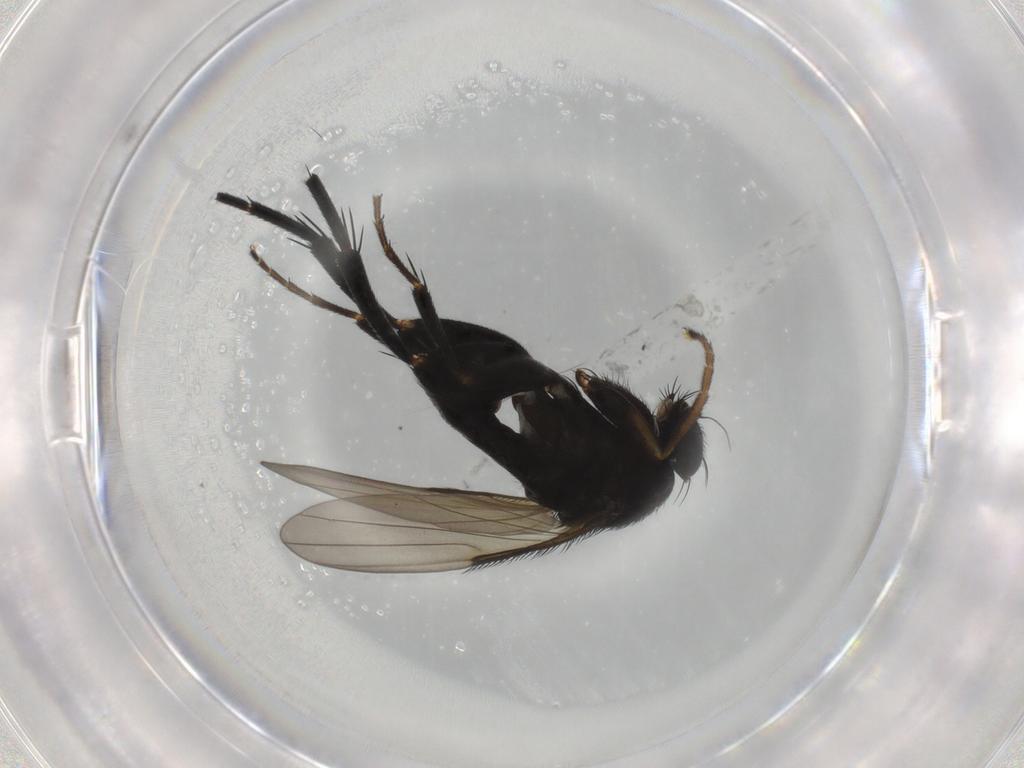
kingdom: Animalia
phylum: Arthropoda
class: Insecta
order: Diptera
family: Phoridae
